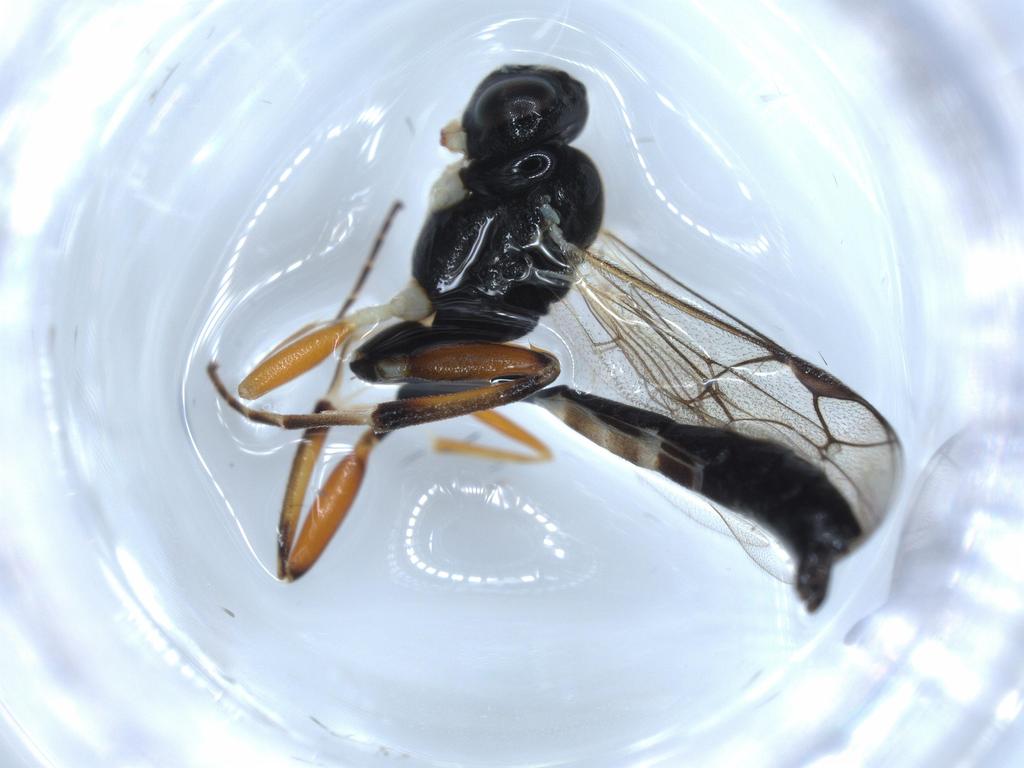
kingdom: Animalia
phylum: Arthropoda
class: Insecta
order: Hymenoptera
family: Platygastridae
